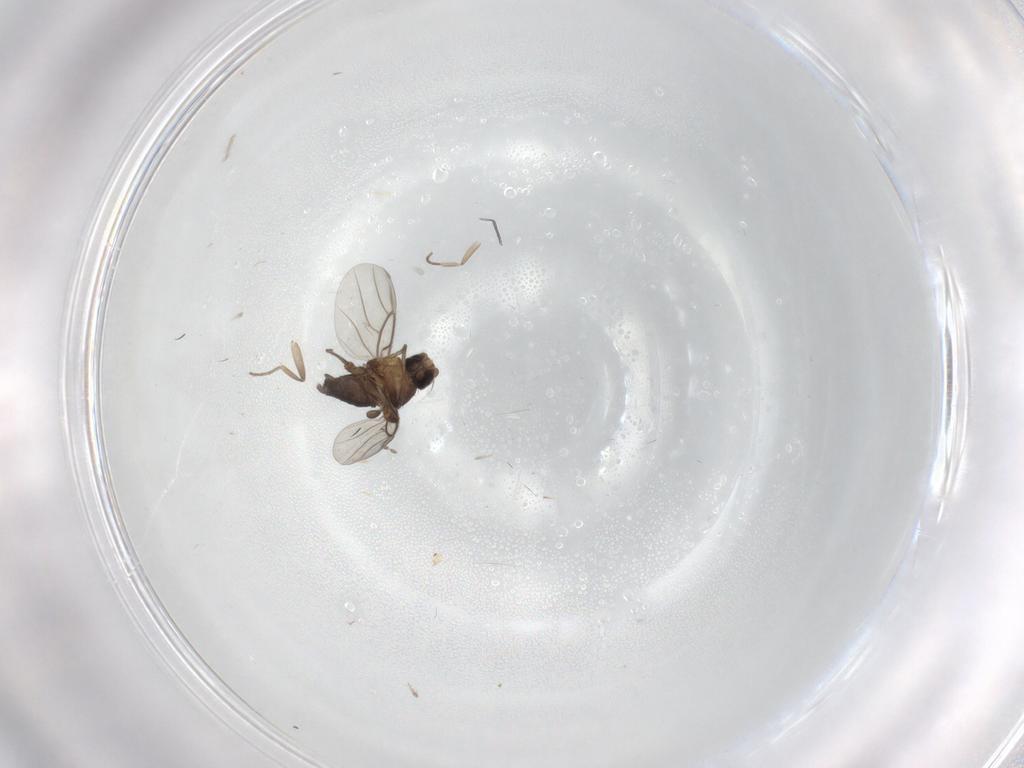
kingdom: Animalia
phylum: Arthropoda
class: Insecta
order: Diptera
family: Phoridae
